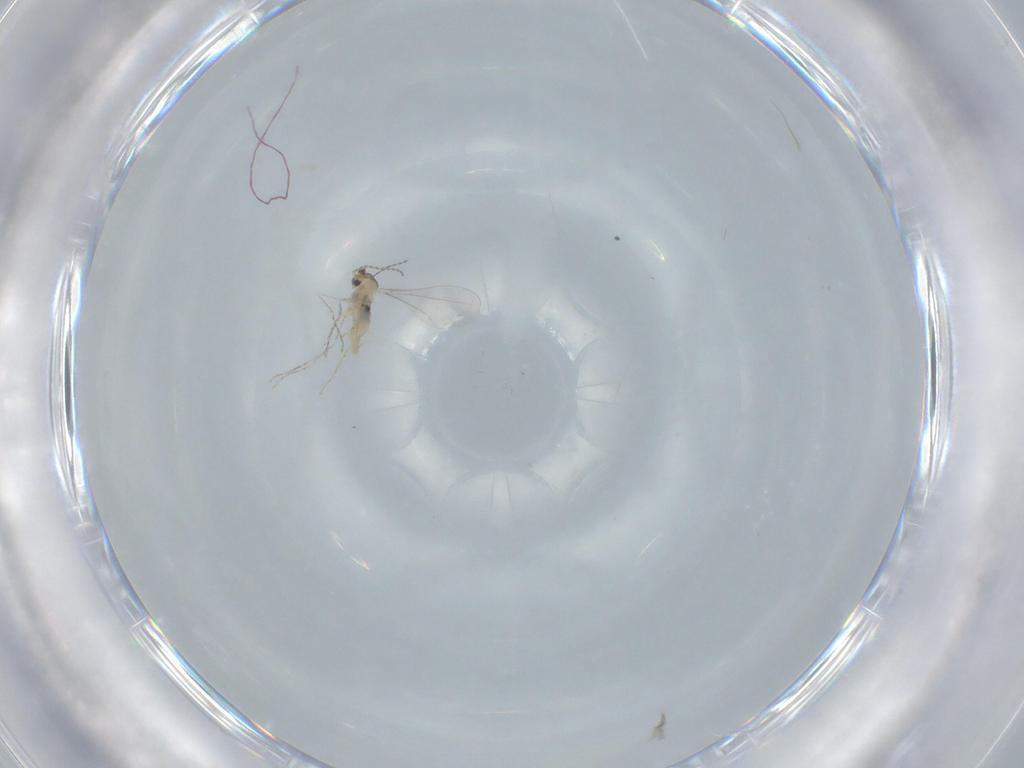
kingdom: Animalia
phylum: Arthropoda
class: Insecta
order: Diptera
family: Cecidomyiidae
